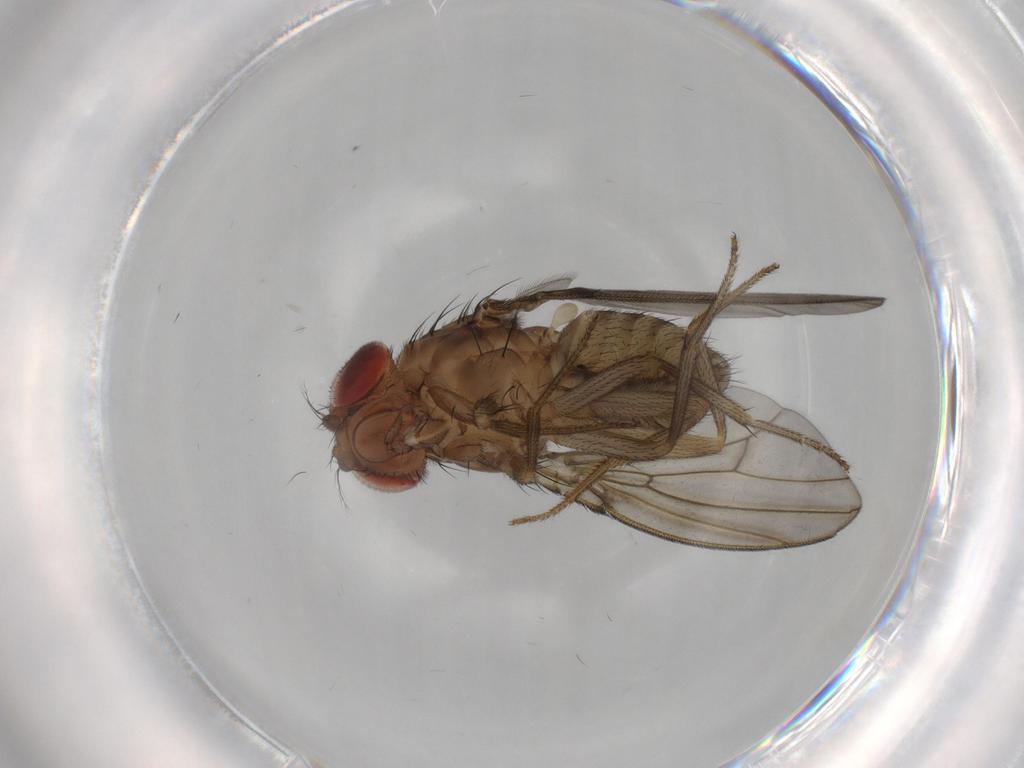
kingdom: Animalia
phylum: Arthropoda
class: Insecta
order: Diptera
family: Drosophilidae
